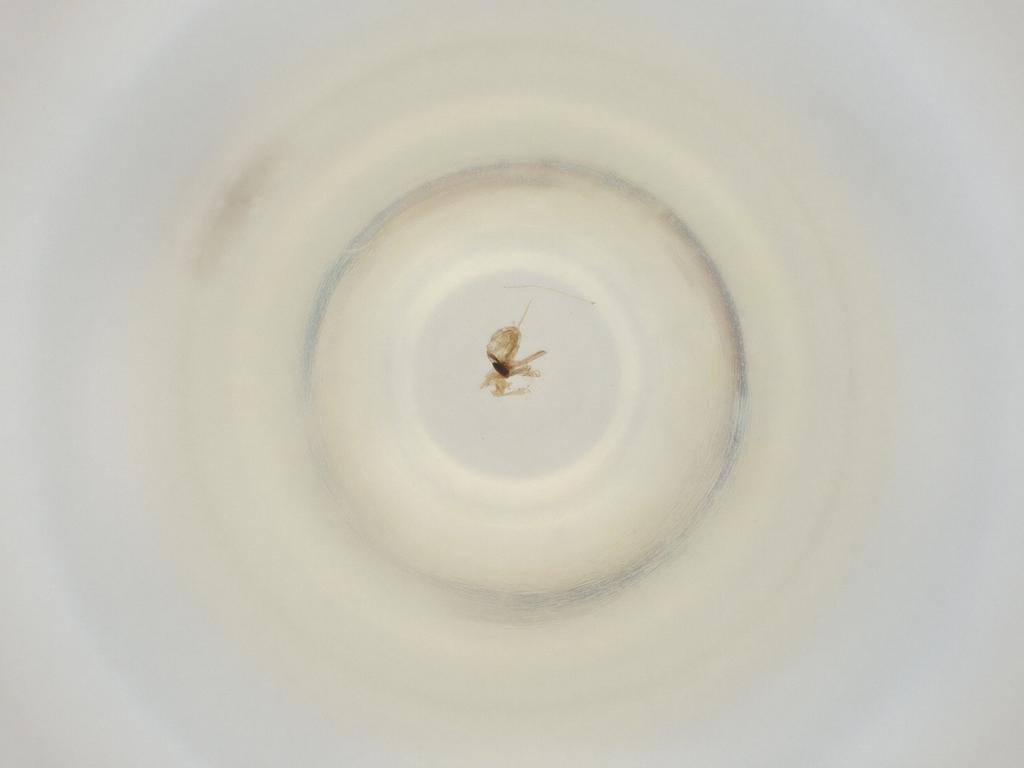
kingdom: Animalia
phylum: Arthropoda
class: Insecta
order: Diptera
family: Cecidomyiidae
